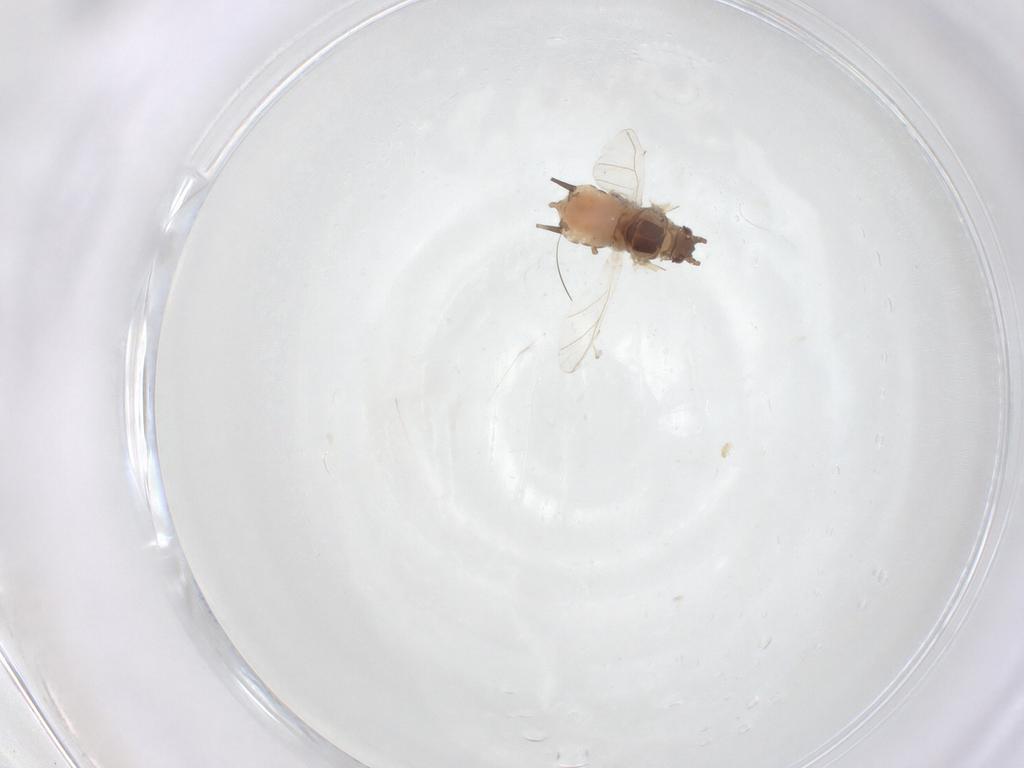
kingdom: Animalia
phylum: Arthropoda
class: Insecta
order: Hemiptera
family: Aphididae
